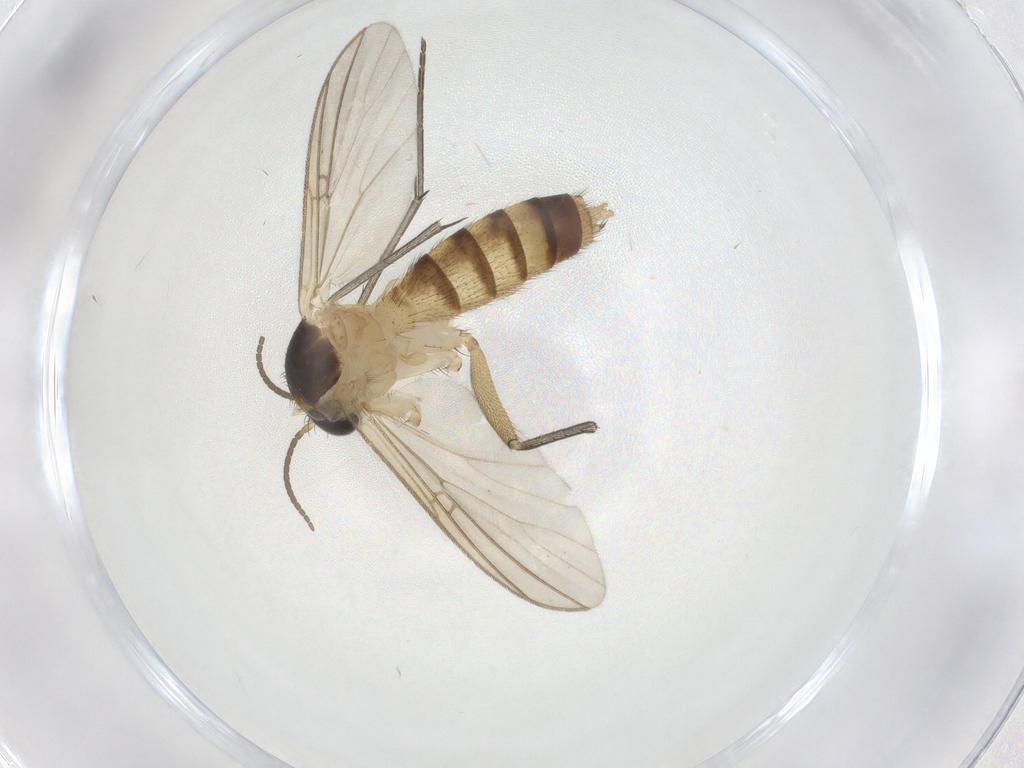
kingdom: Animalia
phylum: Arthropoda
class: Insecta
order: Diptera
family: Mycetophilidae
